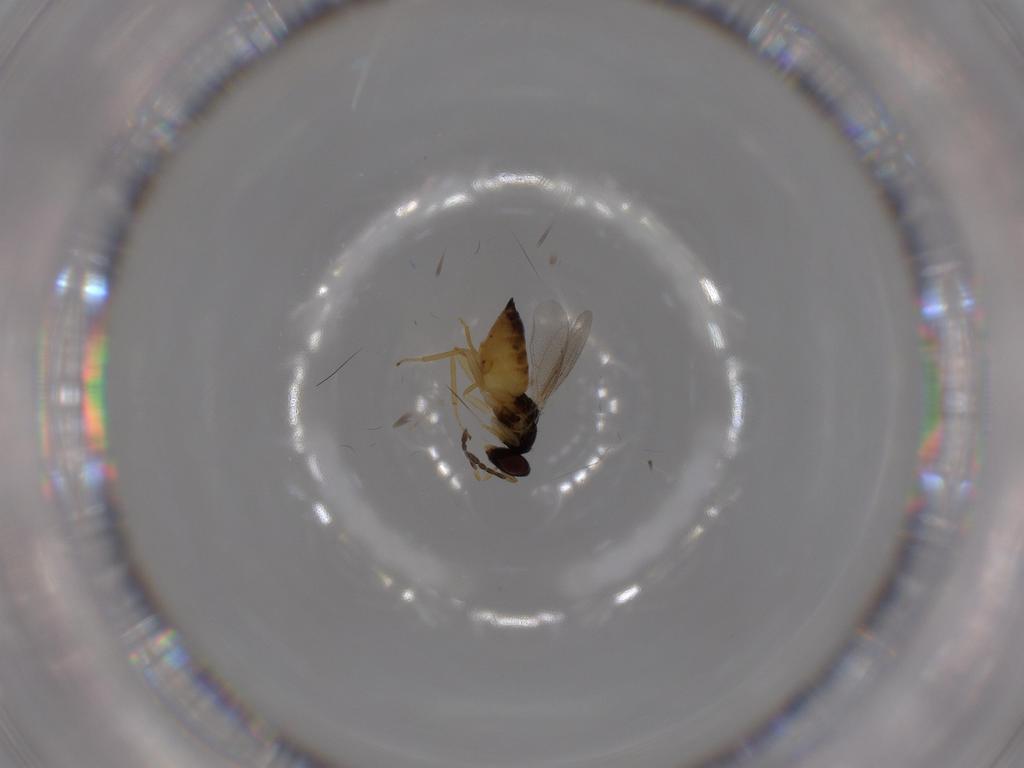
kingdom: Animalia
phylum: Arthropoda
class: Insecta
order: Hymenoptera
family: Eulophidae
